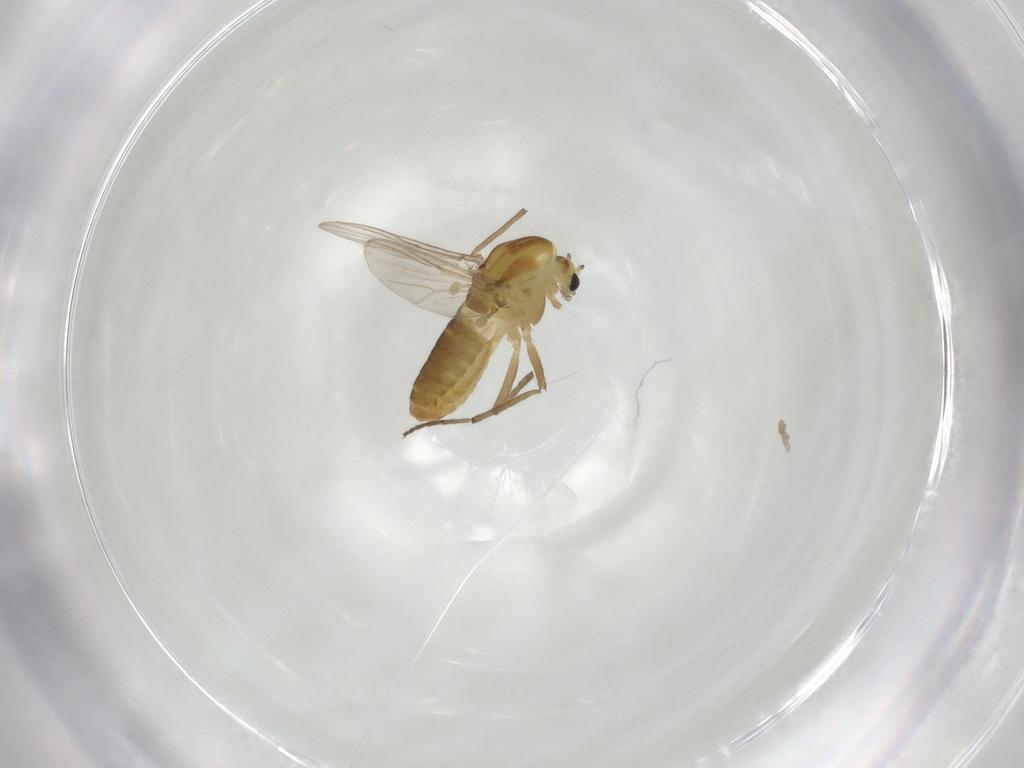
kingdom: Animalia
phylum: Arthropoda
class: Insecta
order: Diptera
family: Chironomidae
